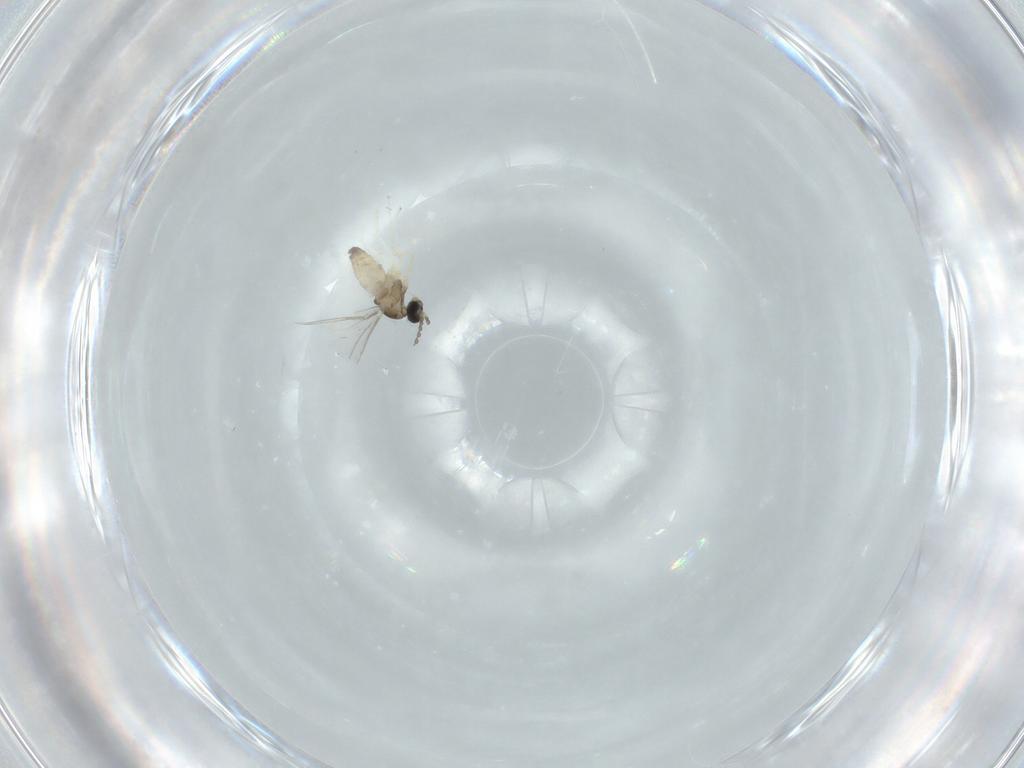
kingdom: Animalia
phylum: Arthropoda
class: Insecta
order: Diptera
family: Cecidomyiidae
